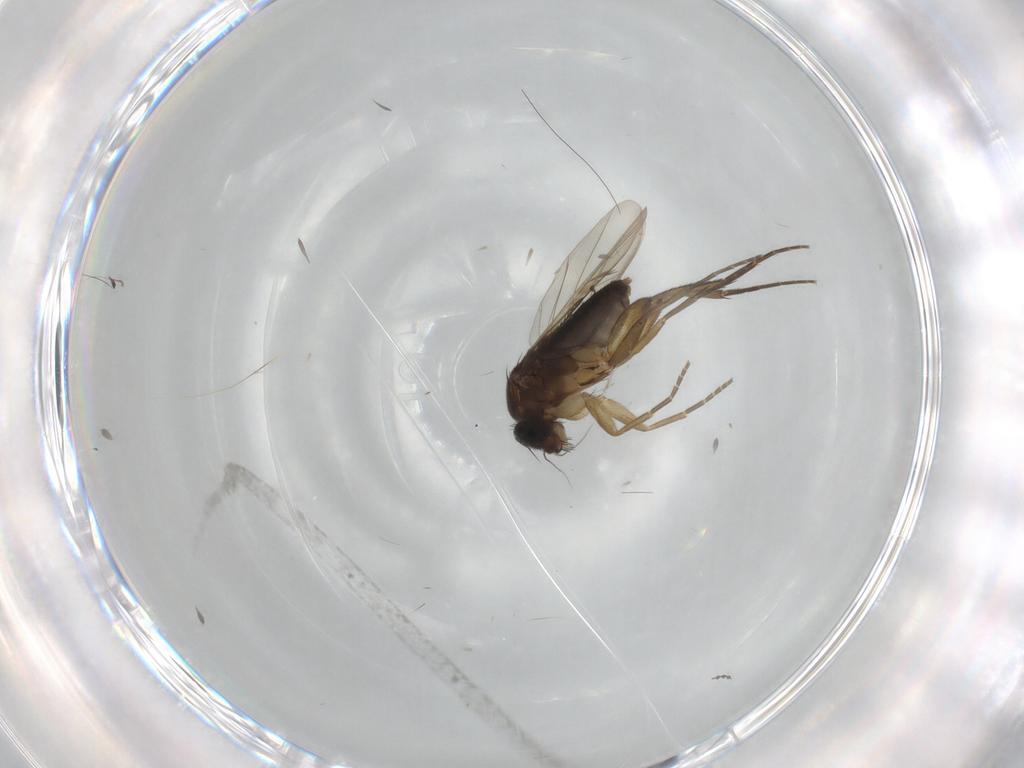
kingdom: Animalia
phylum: Arthropoda
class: Insecta
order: Diptera
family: Phoridae
